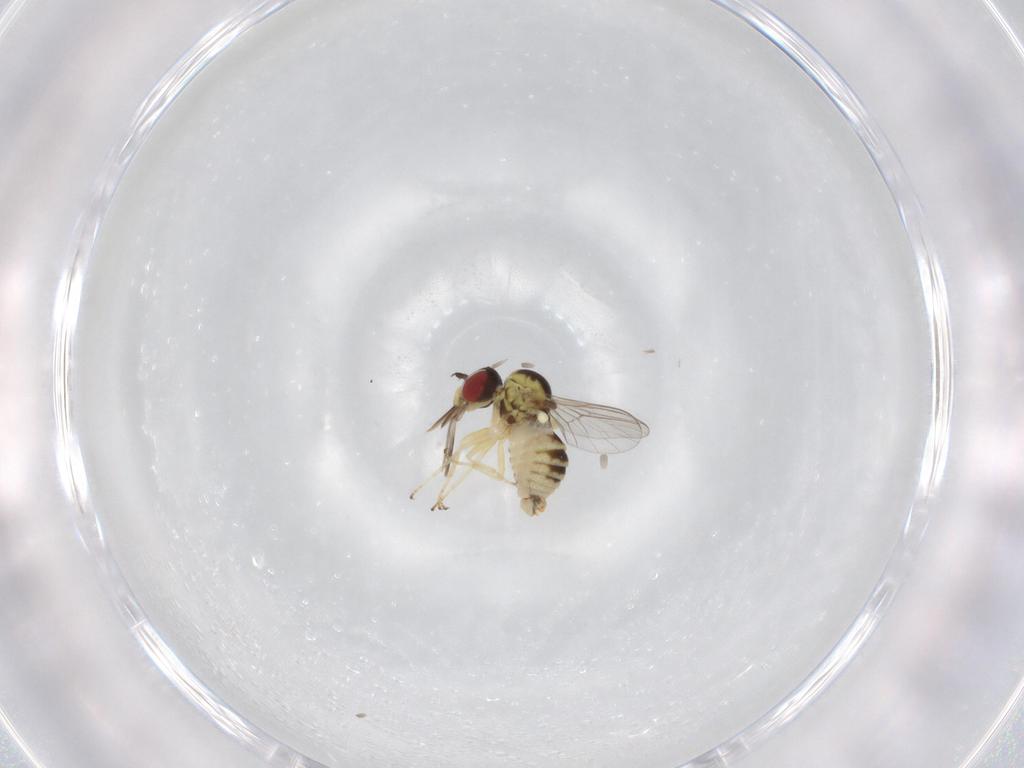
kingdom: Animalia
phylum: Arthropoda
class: Insecta
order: Diptera
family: Bombyliidae
